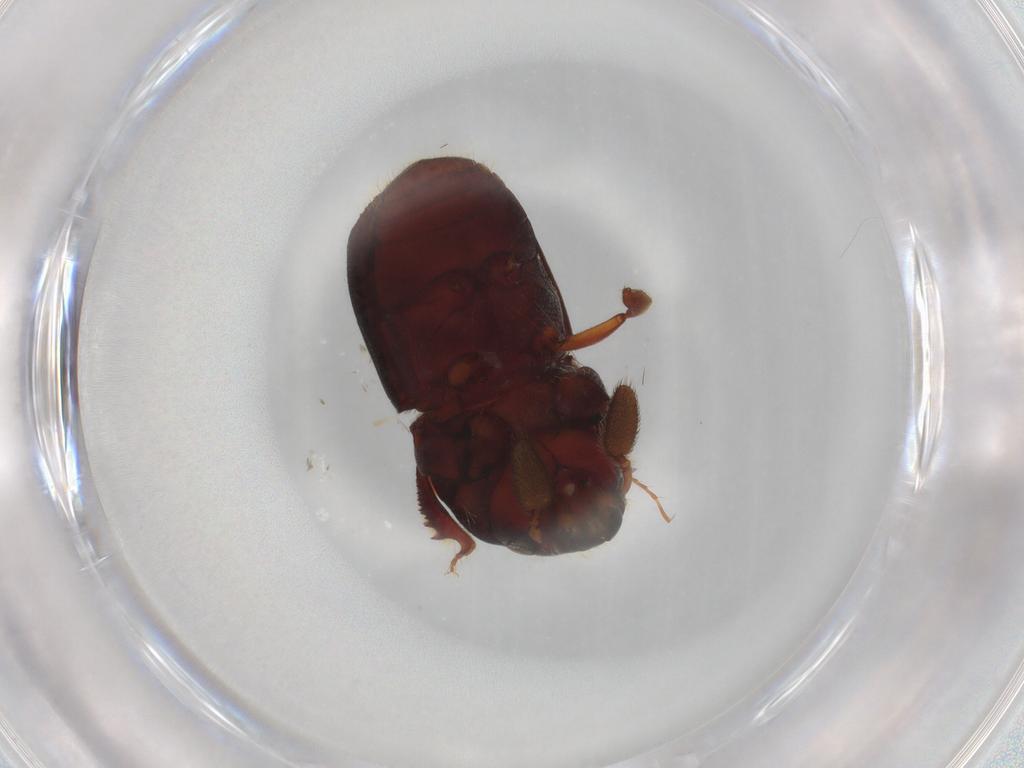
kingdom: Animalia
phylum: Arthropoda
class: Insecta
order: Coleoptera
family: Curculionidae
